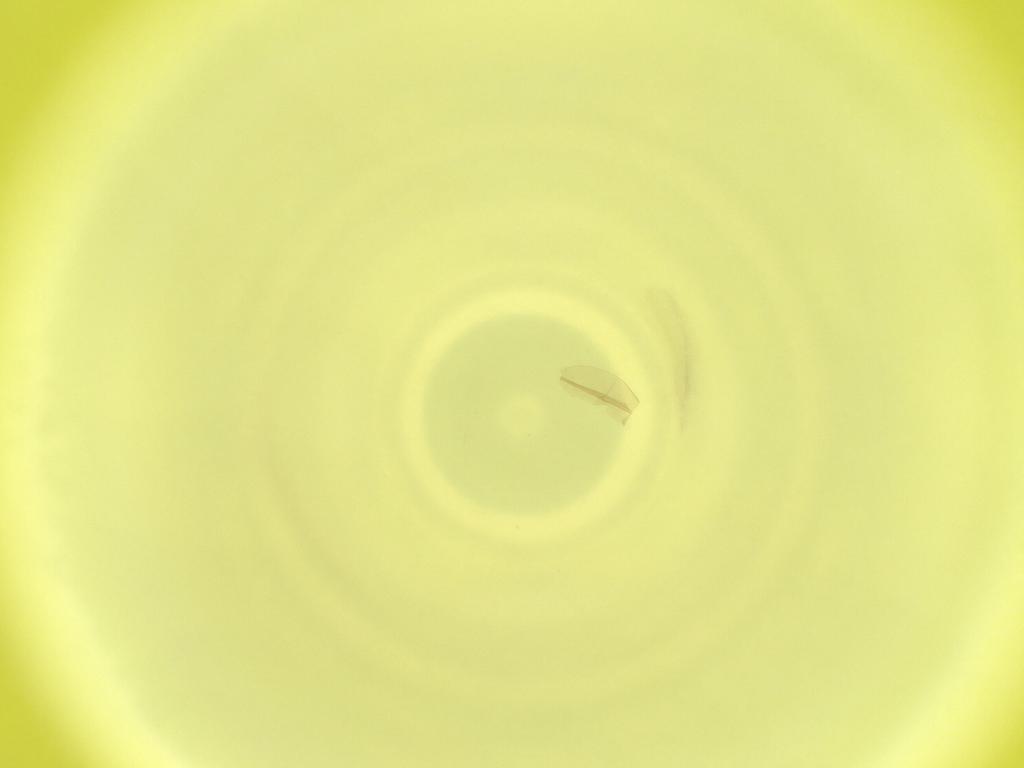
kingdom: Animalia
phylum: Arthropoda
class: Insecta
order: Diptera
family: Cecidomyiidae
